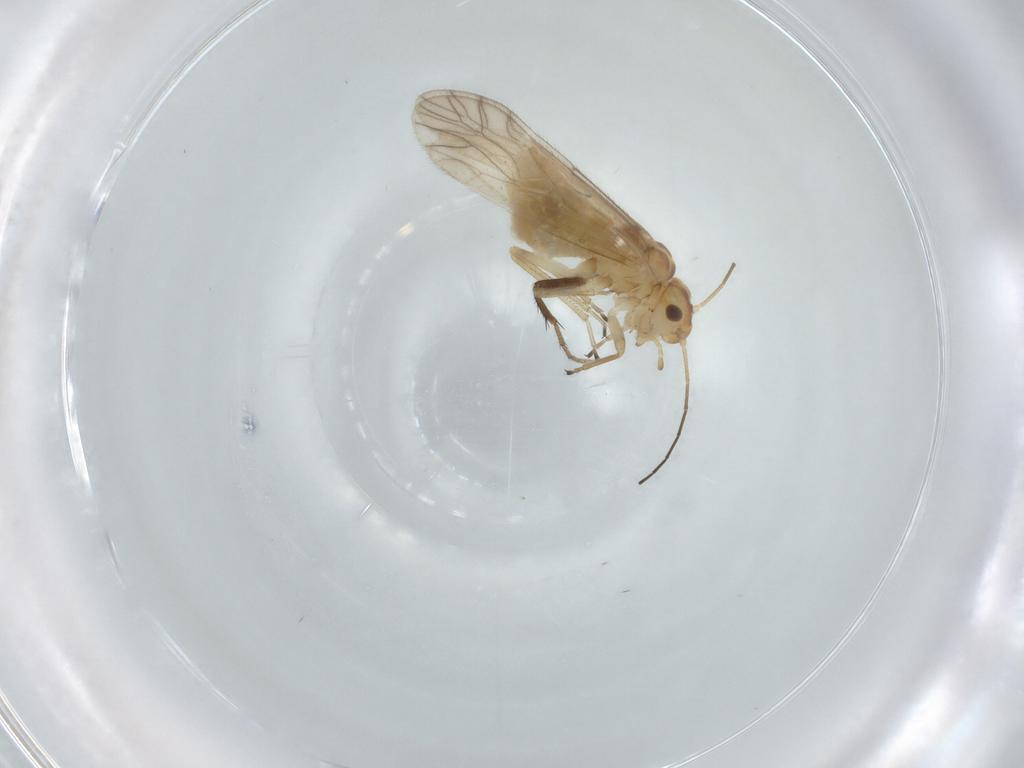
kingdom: Animalia
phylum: Arthropoda
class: Insecta
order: Psocodea
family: Caeciliusidae
